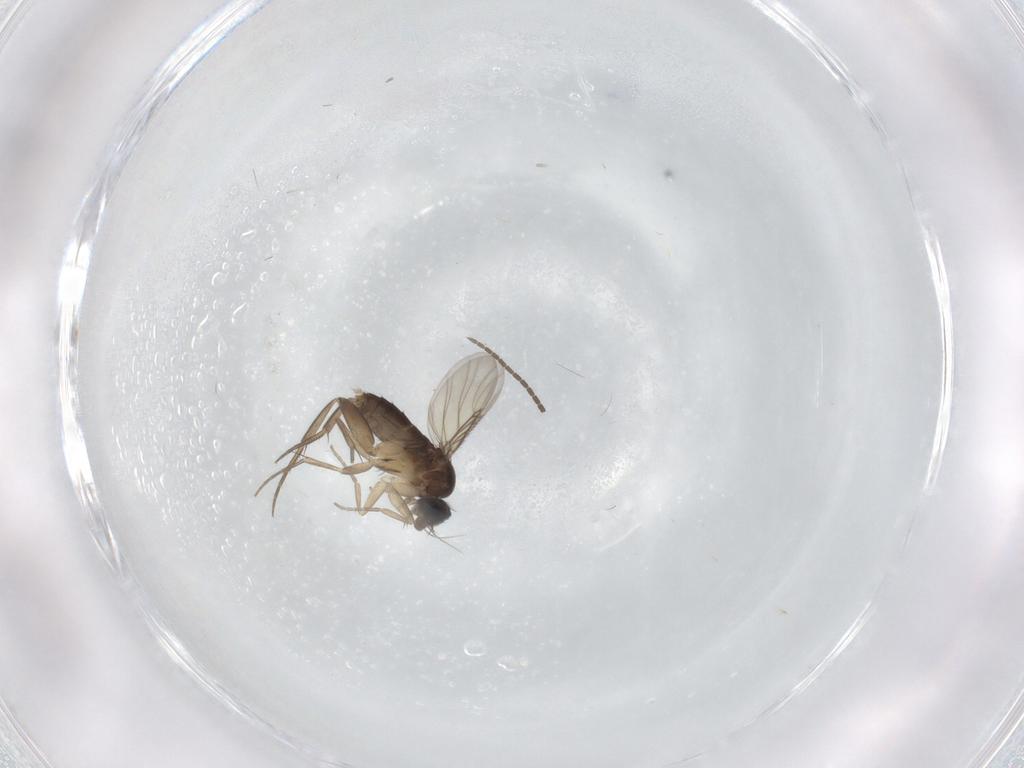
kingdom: Animalia
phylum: Arthropoda
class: Insecta
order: Diptera
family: Phoridae
